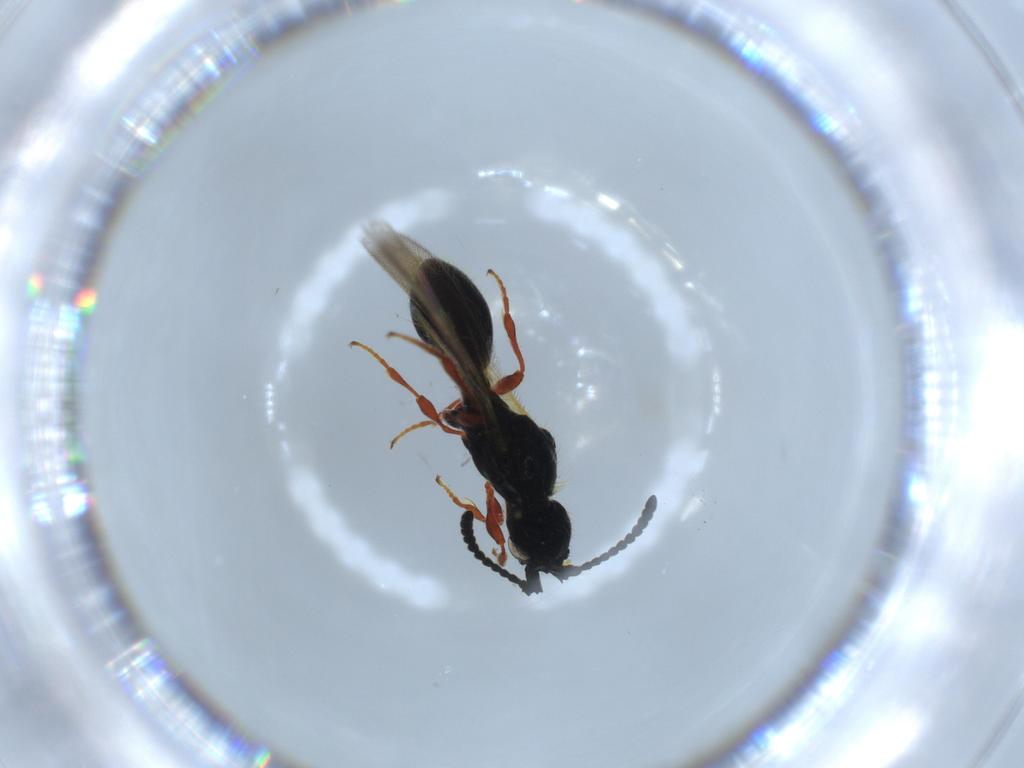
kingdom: Animalia
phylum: Arthropoda
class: Insecta
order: Hymenoptera
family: Diapriidae
